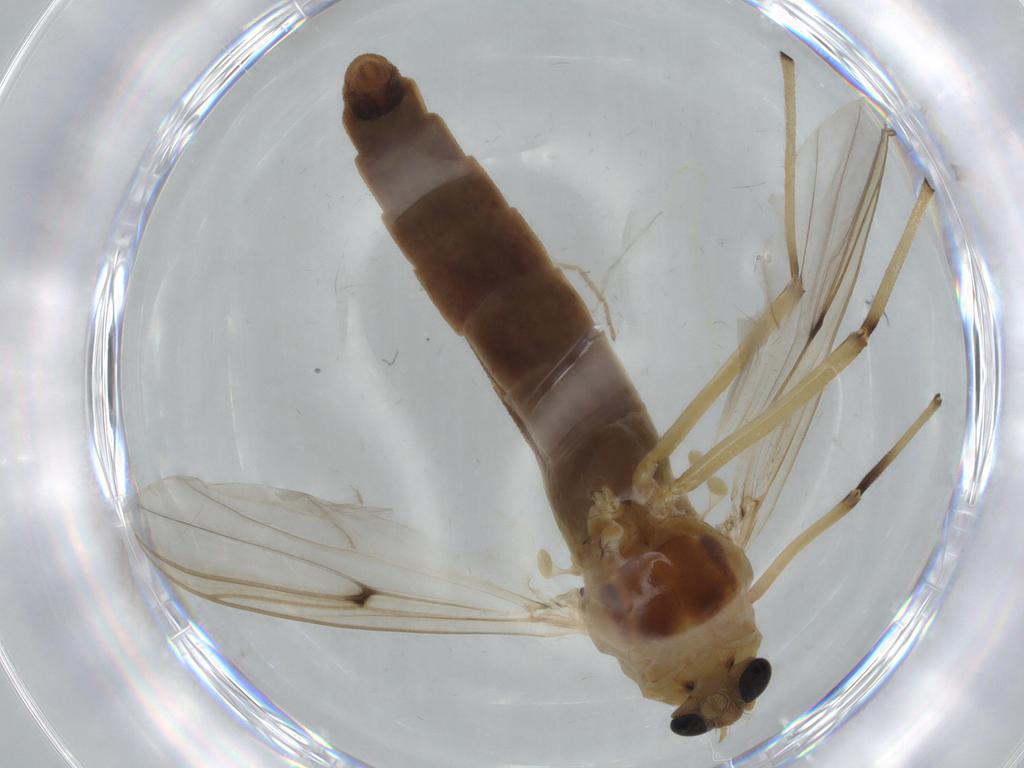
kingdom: Animalia
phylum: Arthropoda
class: Insecta
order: Diptera
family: Chironomidae
